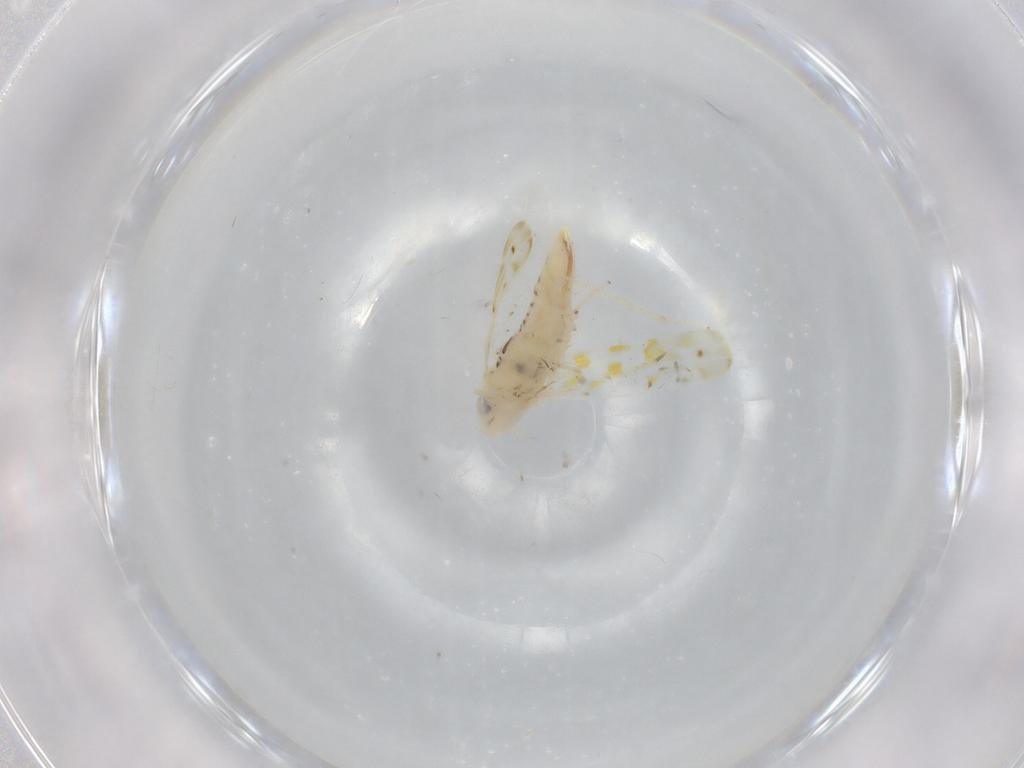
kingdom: Animalia
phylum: Arthropoda
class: Insecta
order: Hemiptera
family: Cicadellidae
